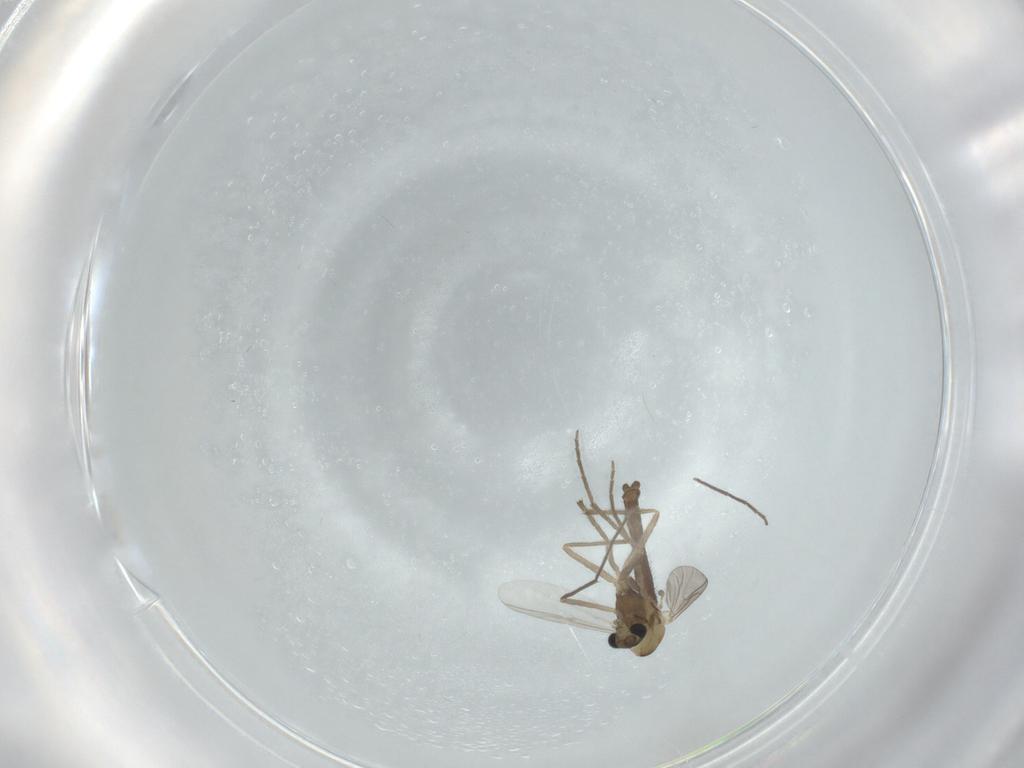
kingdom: Animalia
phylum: Arthropoda
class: Insecta
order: Diptera
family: Chironomidae
